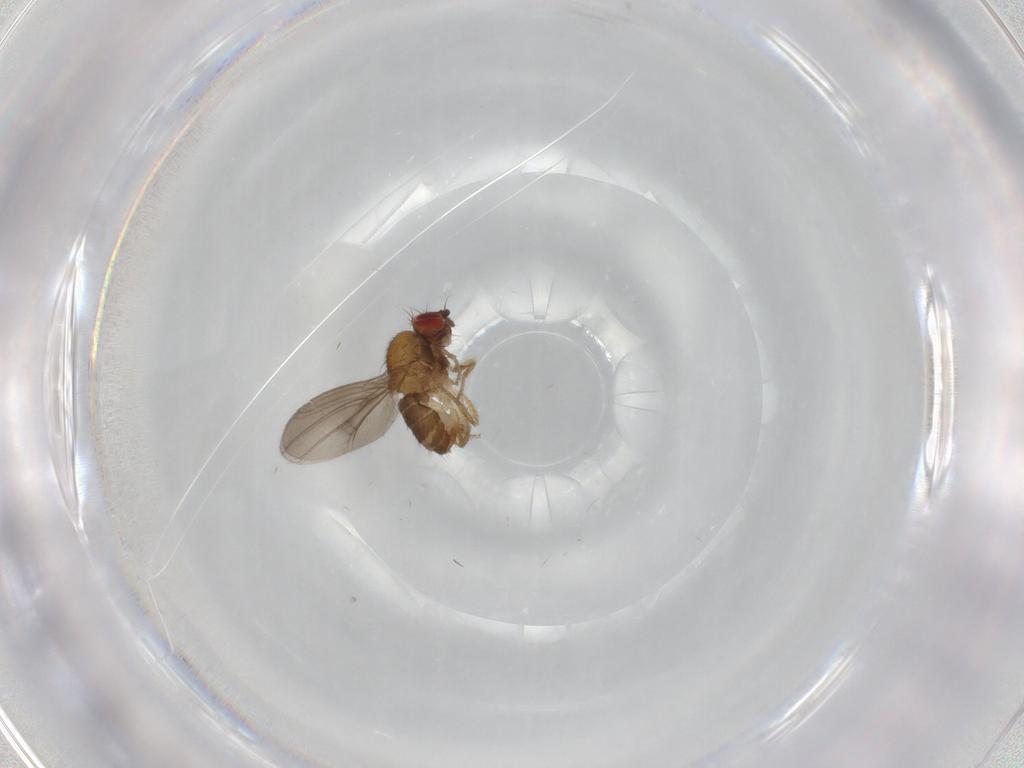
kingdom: Animalia
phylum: Arthropoda
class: Insecta
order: Diptera
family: Drosophilidae
